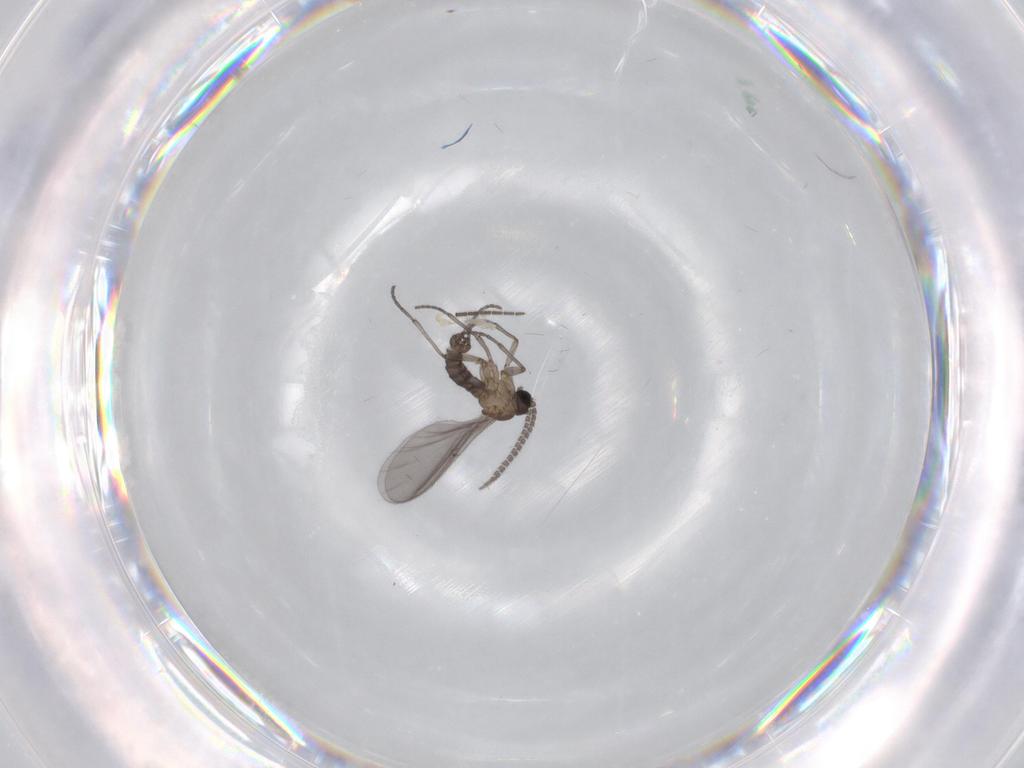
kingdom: Animalia
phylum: Arthropoda
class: Insecta
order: Diptera
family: Sciaridae
